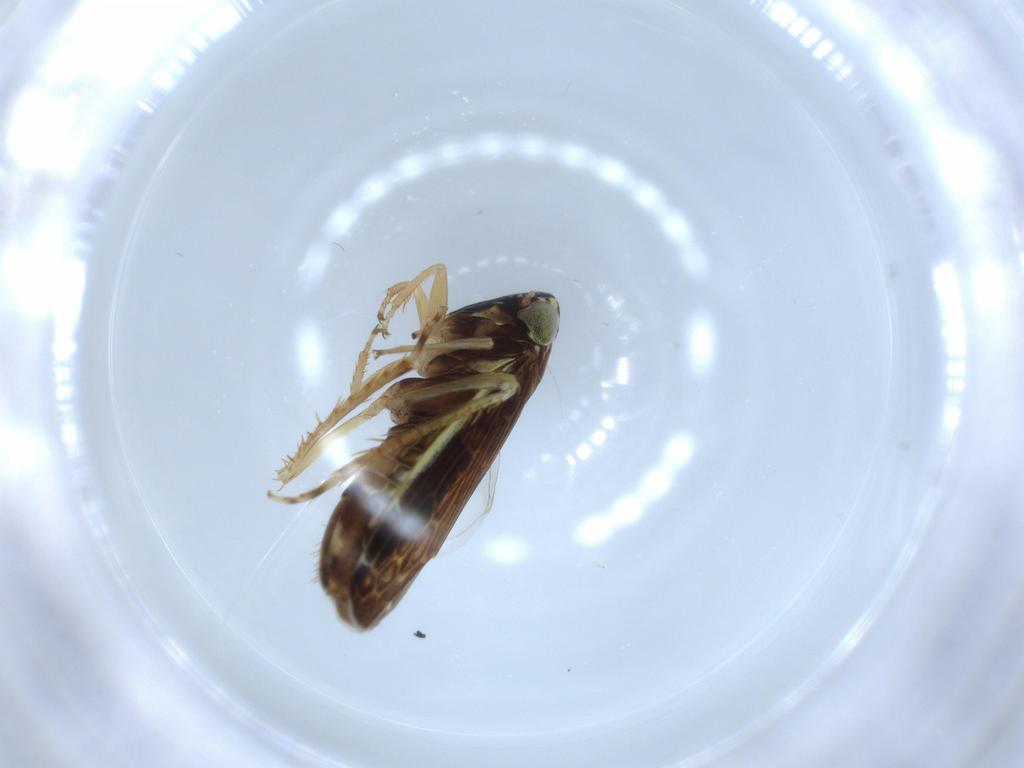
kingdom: Animalia
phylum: Arthropoda
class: Insecta
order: Hemiptera
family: Cicadellidae
